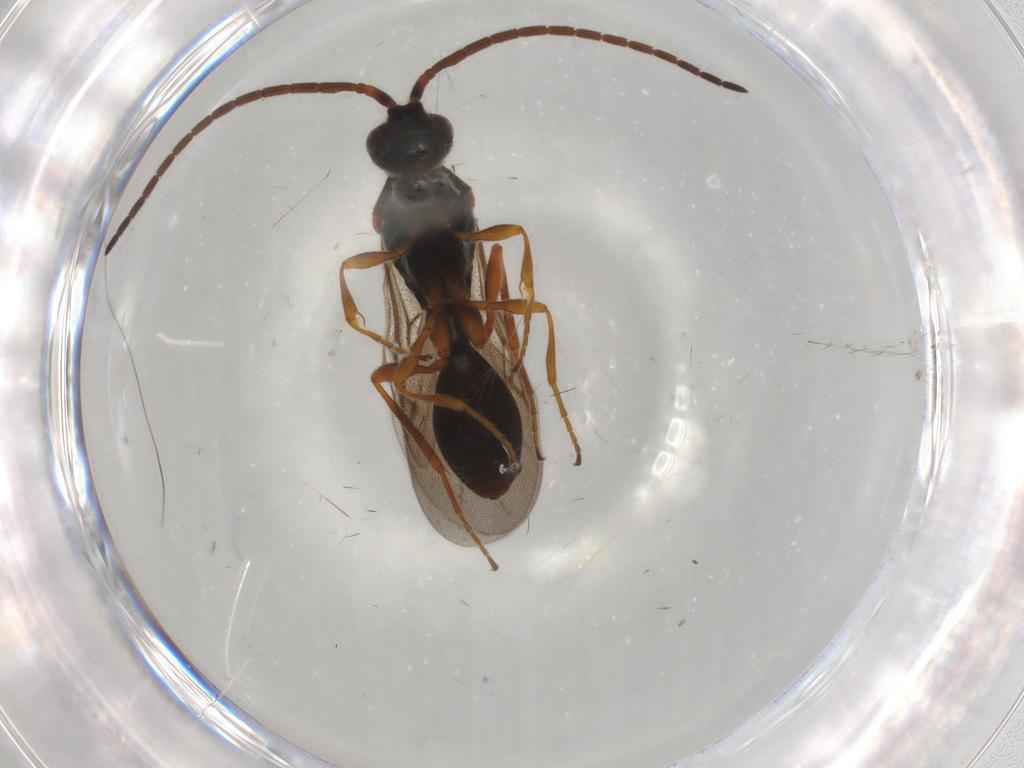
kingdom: Animalia
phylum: Arthropoda
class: Insecta
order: Hymenoptera
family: Diapriidae
